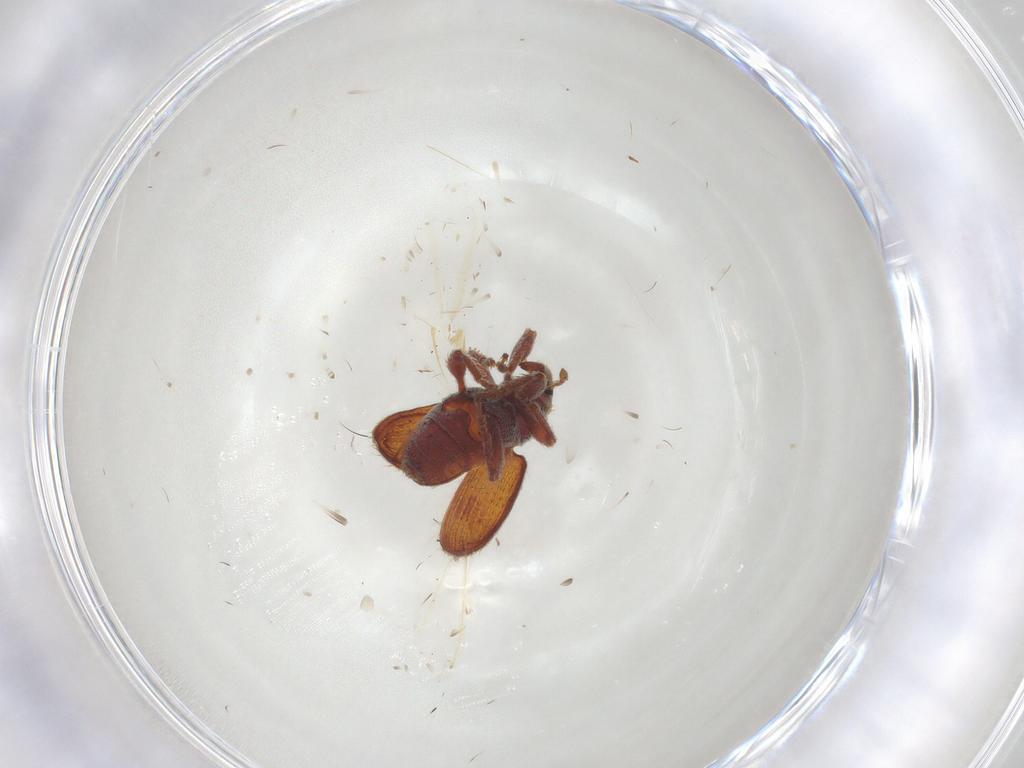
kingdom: Animalia
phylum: Arthropoda
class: Insecta
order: Coleoptera
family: Curculionidae
